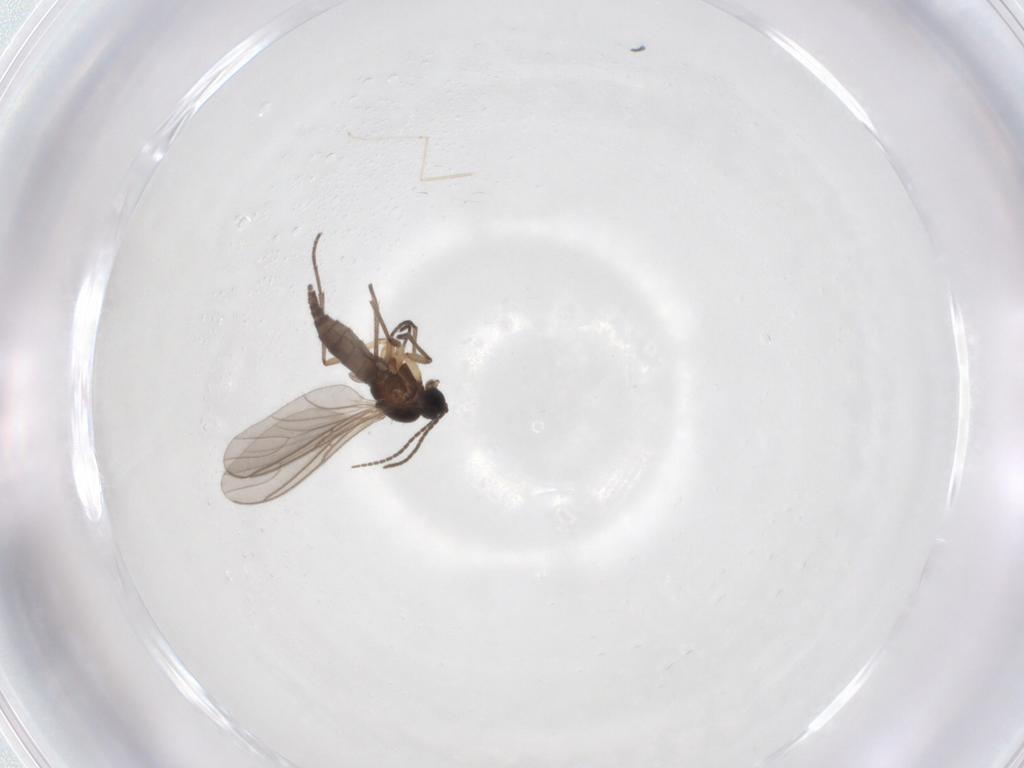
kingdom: Animalia
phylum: Arthropoda
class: Insecta
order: Diptera
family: Sciaridae
